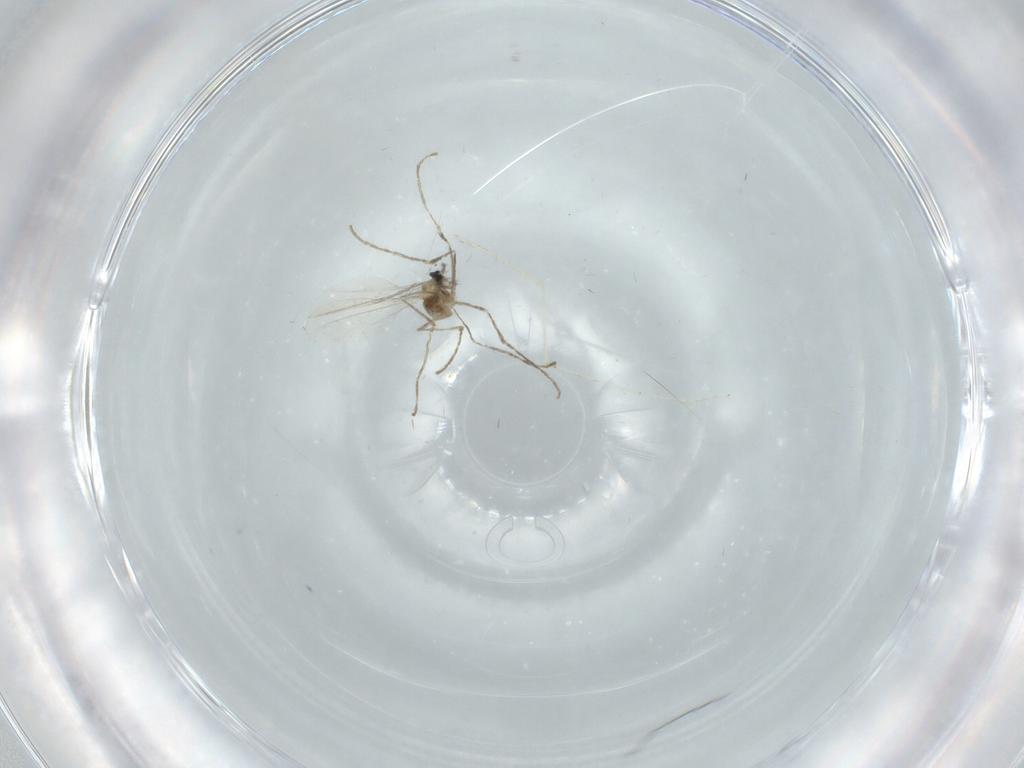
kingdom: Animalia
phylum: Arthropoda
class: Insecta
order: Diptera
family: Cecidomyiidae
